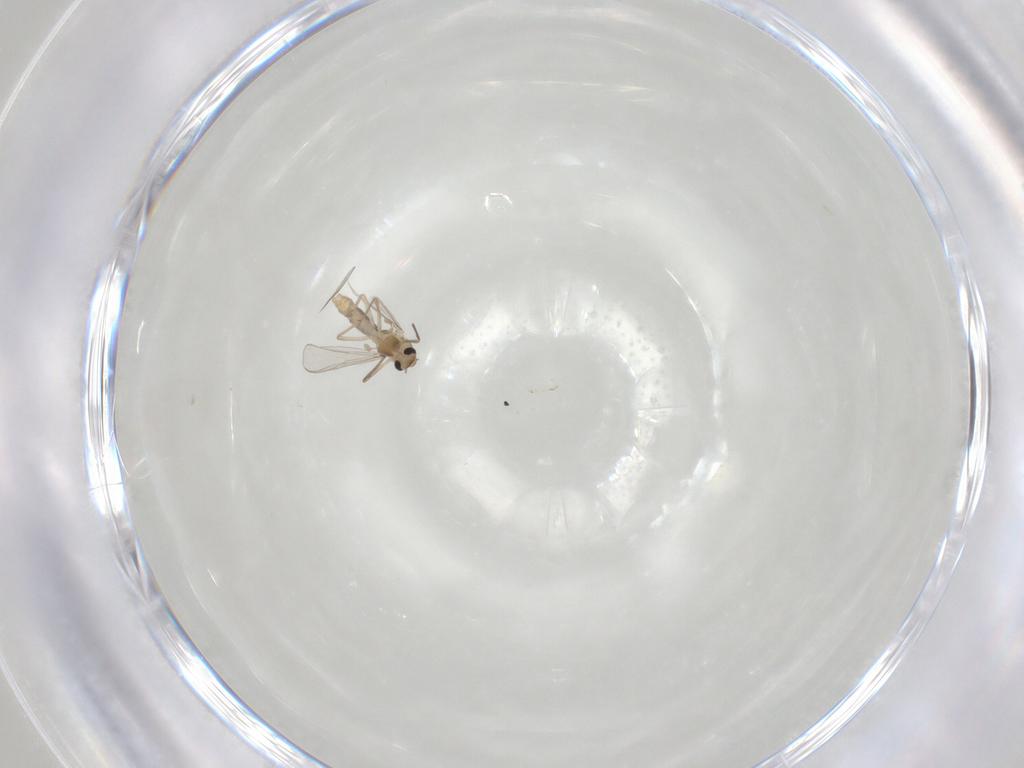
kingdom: Animalia
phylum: Arthropoda
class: Insecta
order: Diptera
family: Chironomidae
